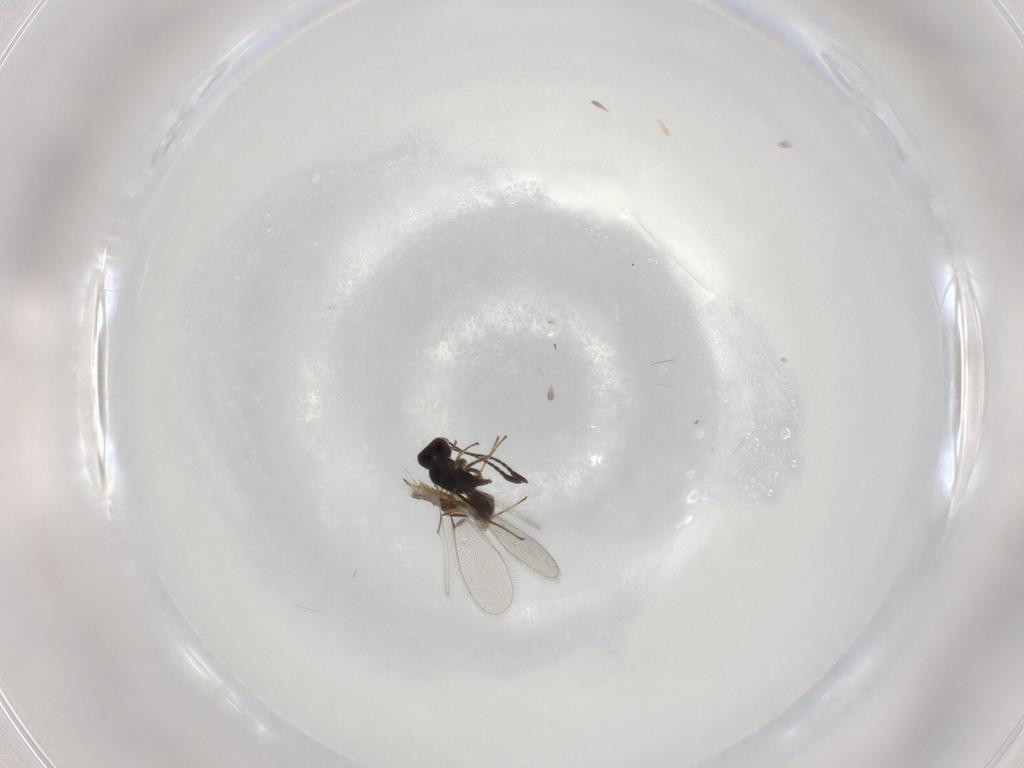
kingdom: Animalia
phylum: Arthropoda
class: Insecta
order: Hymenoptera
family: Mymaridae
